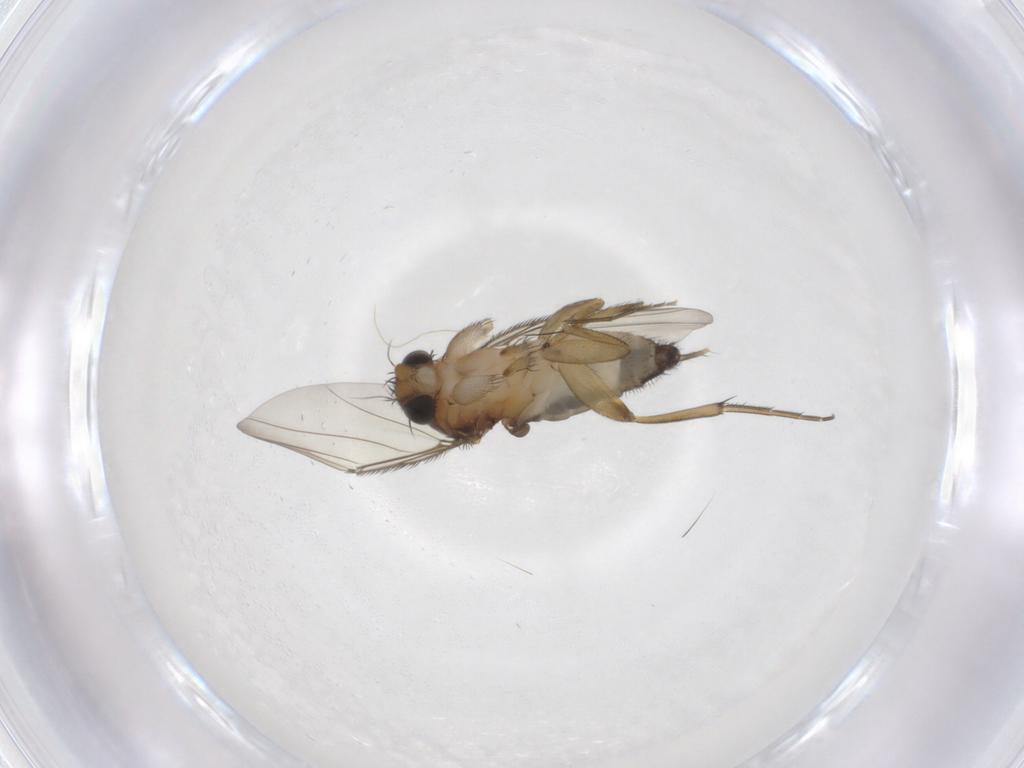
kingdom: Animalia
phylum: Arthropoda
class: Insecta
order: Diptera
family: Phoridae
